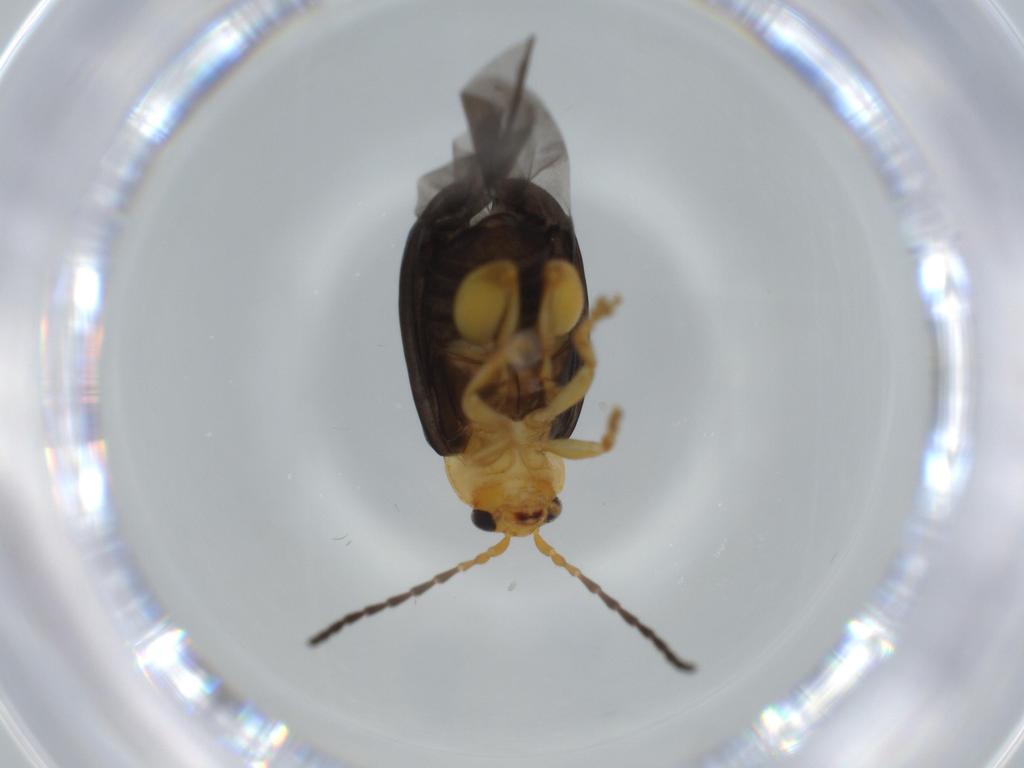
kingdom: Animalia
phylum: Arthropoda
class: Insecta
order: Coleoptera
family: Chrysomelidae
